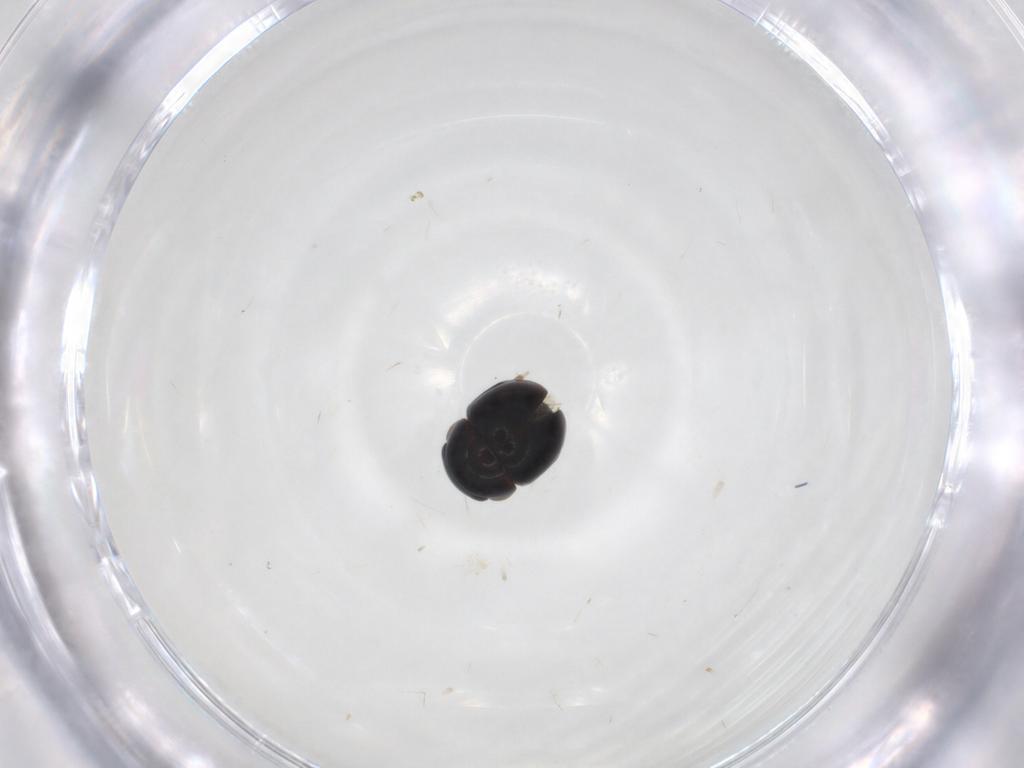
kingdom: Animalia
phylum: Arthropoda
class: Insecta
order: Coleoptera
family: Cybocephalidae
